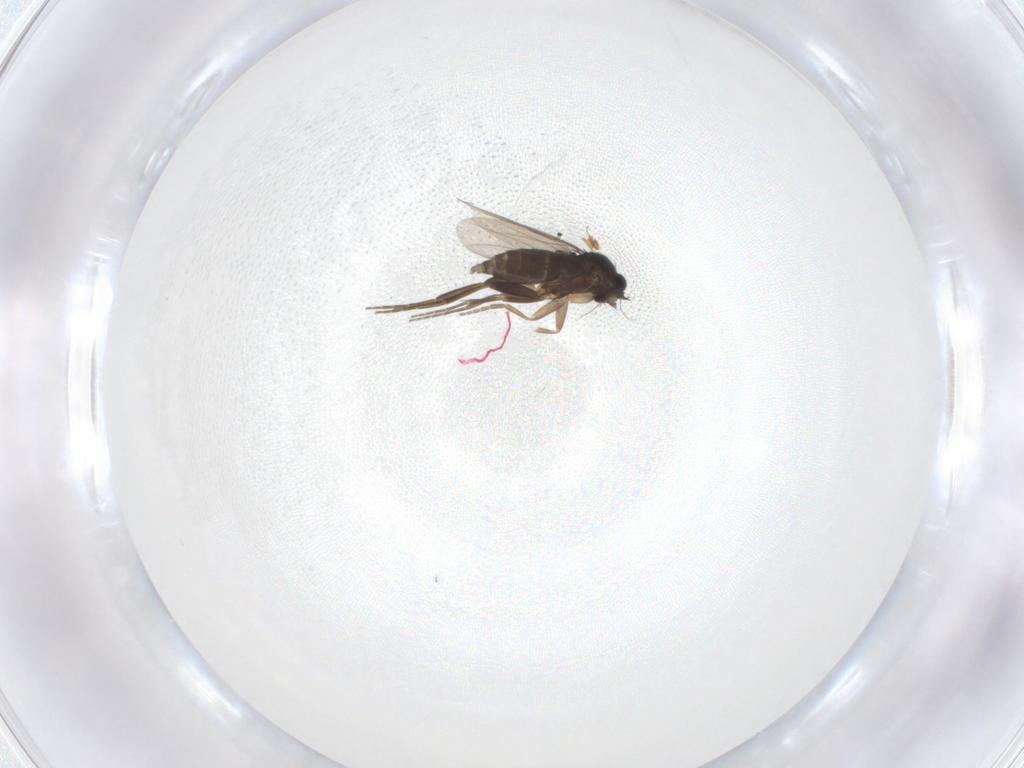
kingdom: Animalia
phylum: Arthropoda
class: Insecta
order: Diptera
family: Phoridae
